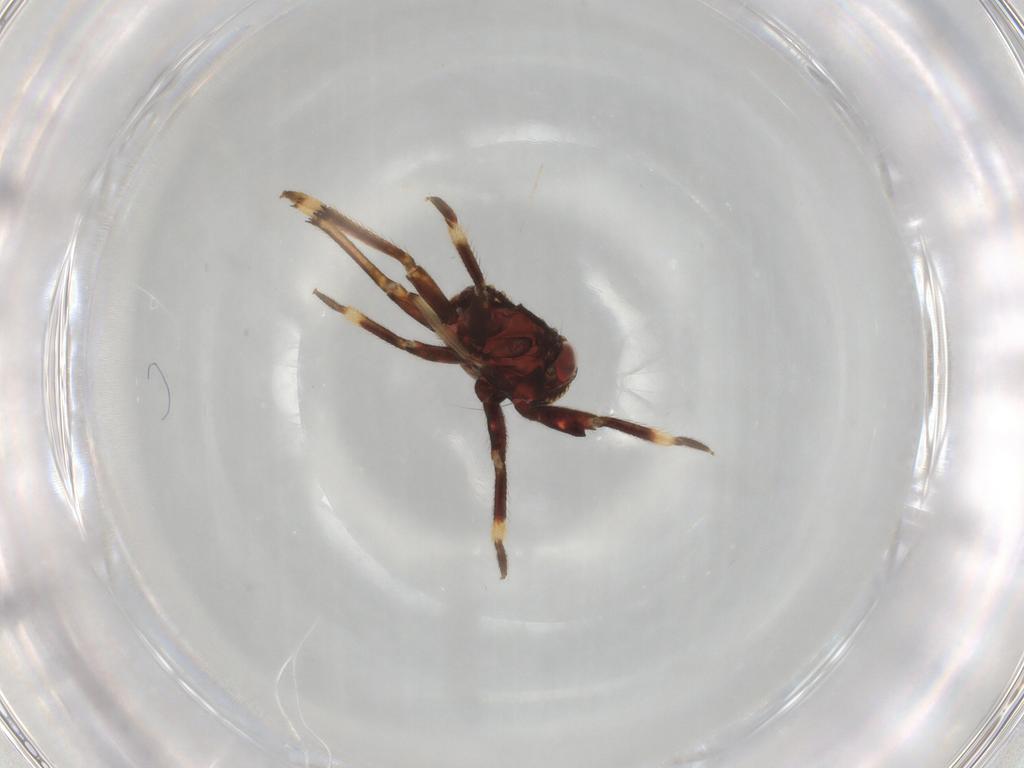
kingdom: Animalia
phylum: Arthropoda
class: Insecta
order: Hemiptera
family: Cixiidae
